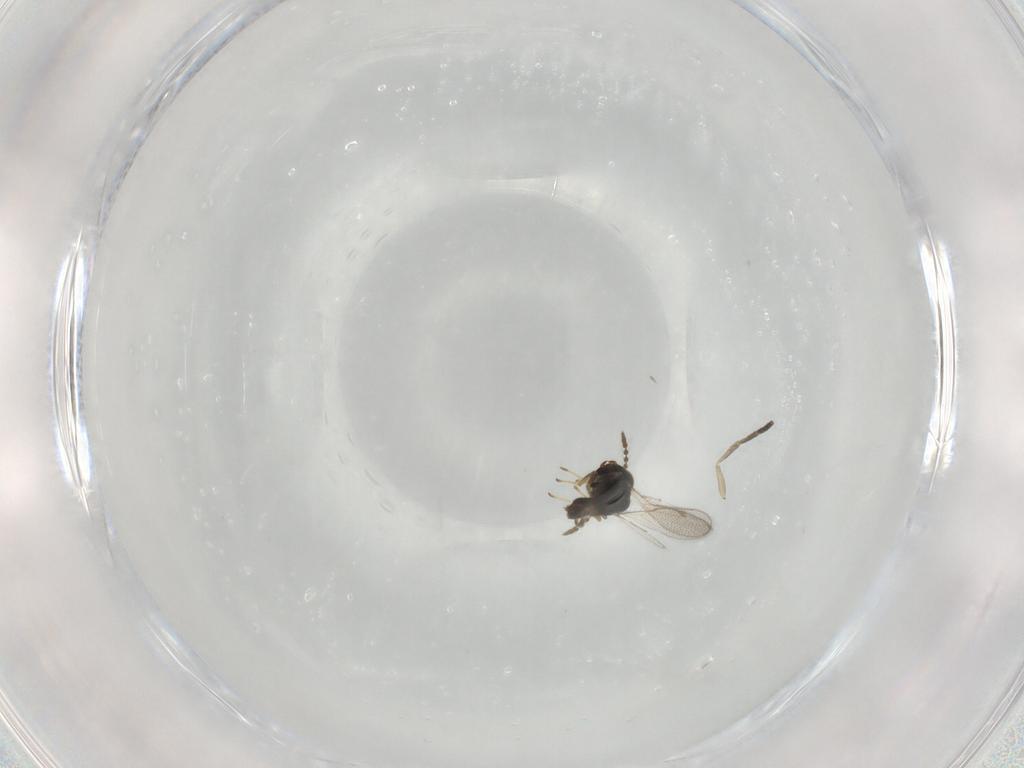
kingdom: Animalia
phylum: Arthropoda
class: Insecta
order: Hymenoptera
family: Pteromalidae
